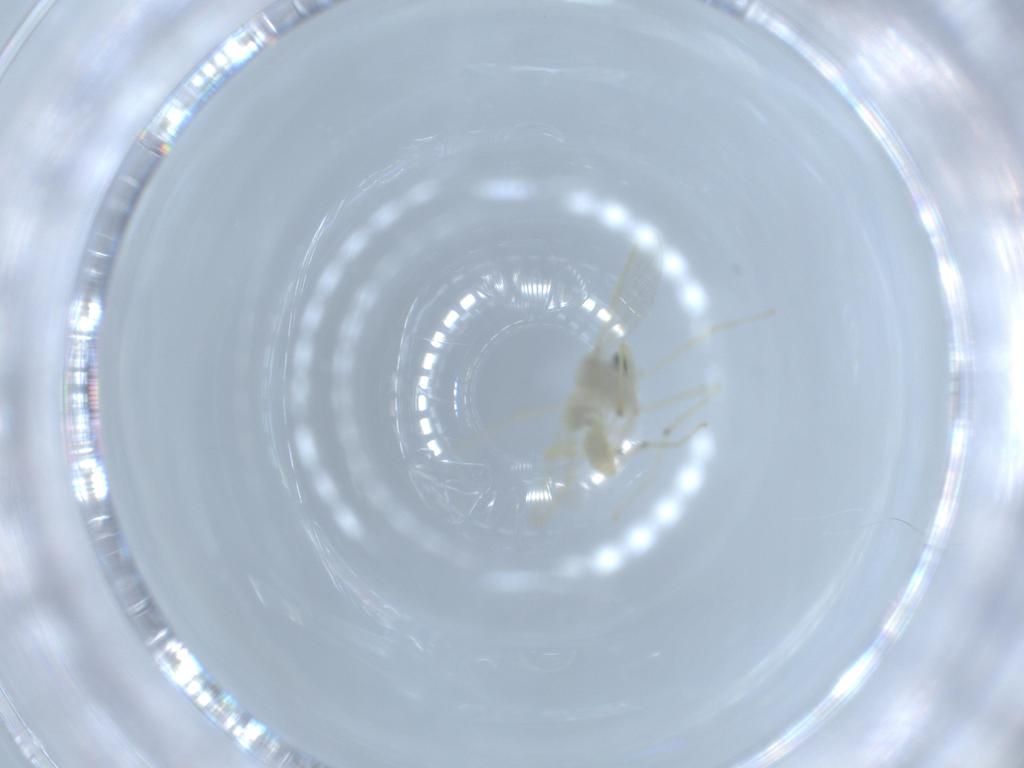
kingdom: Animalia
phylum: Arthropoda
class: Insecta
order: Diptera
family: Chironomidae
